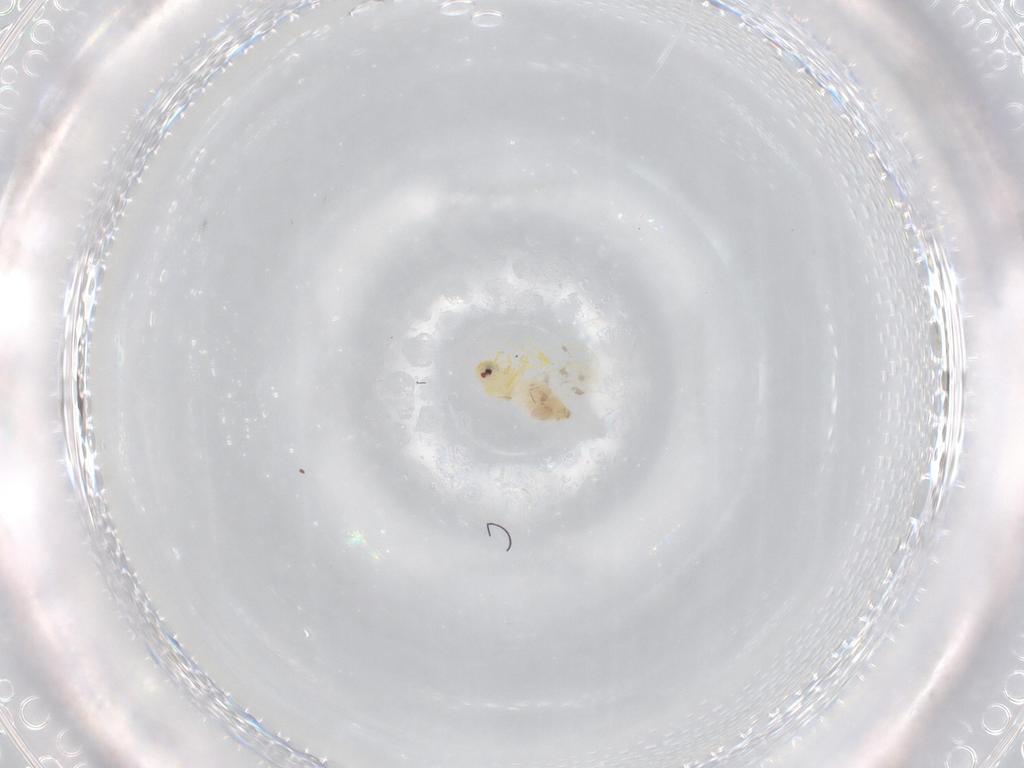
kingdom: Animalia
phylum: Arthropoda
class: Insecta
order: Hemiptera
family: Aleyrodidae
